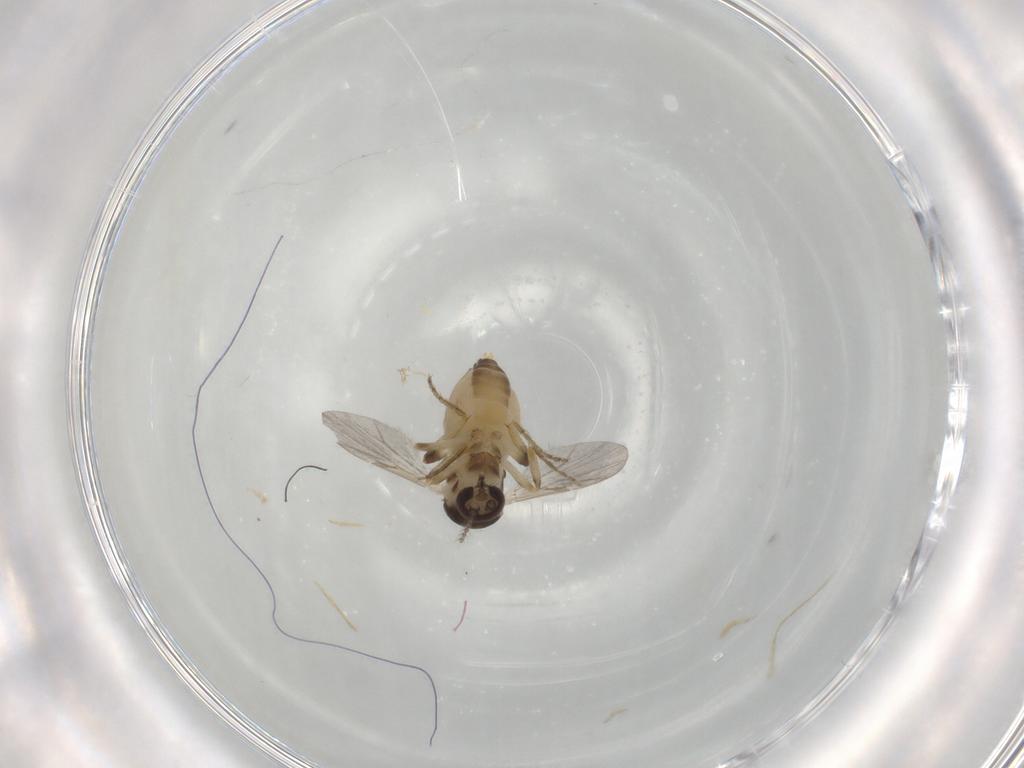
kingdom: Animalia
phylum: Arthropoda
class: Insecta
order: Diptera
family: Ceratopogonidae
